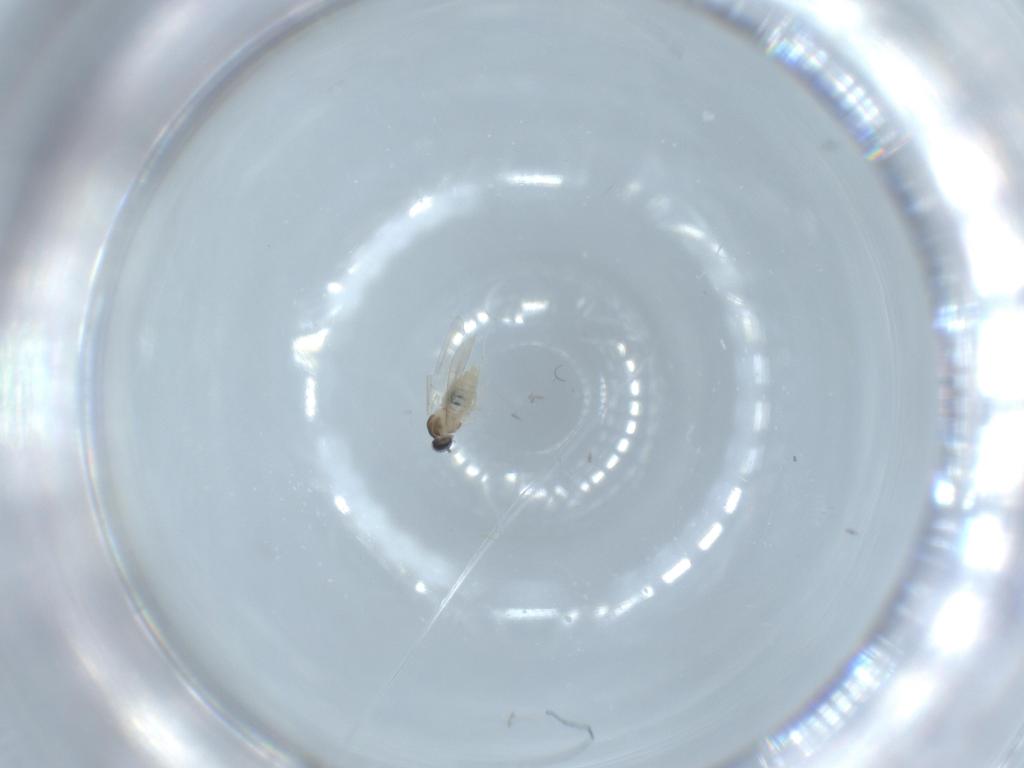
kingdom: Animalia
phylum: Arthropoda
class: Insecta
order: Diptera
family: Cecidomyiidae
